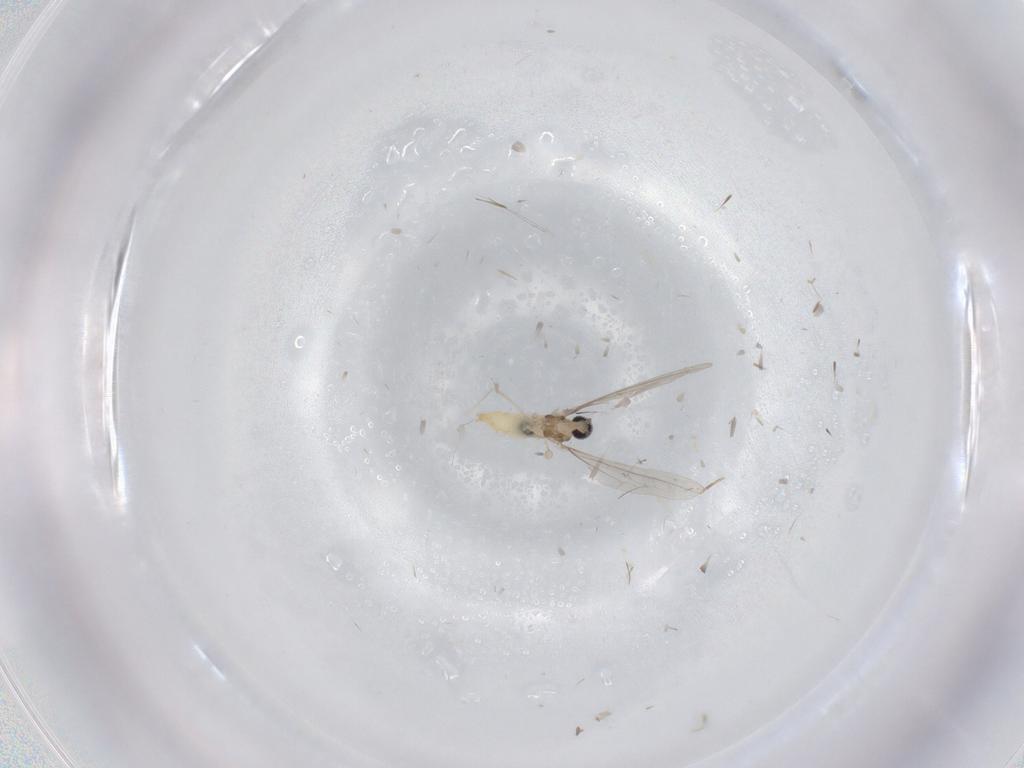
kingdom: Animalia
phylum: Arthropoda
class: Insecta
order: Diptera
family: Cecidomyiidae
